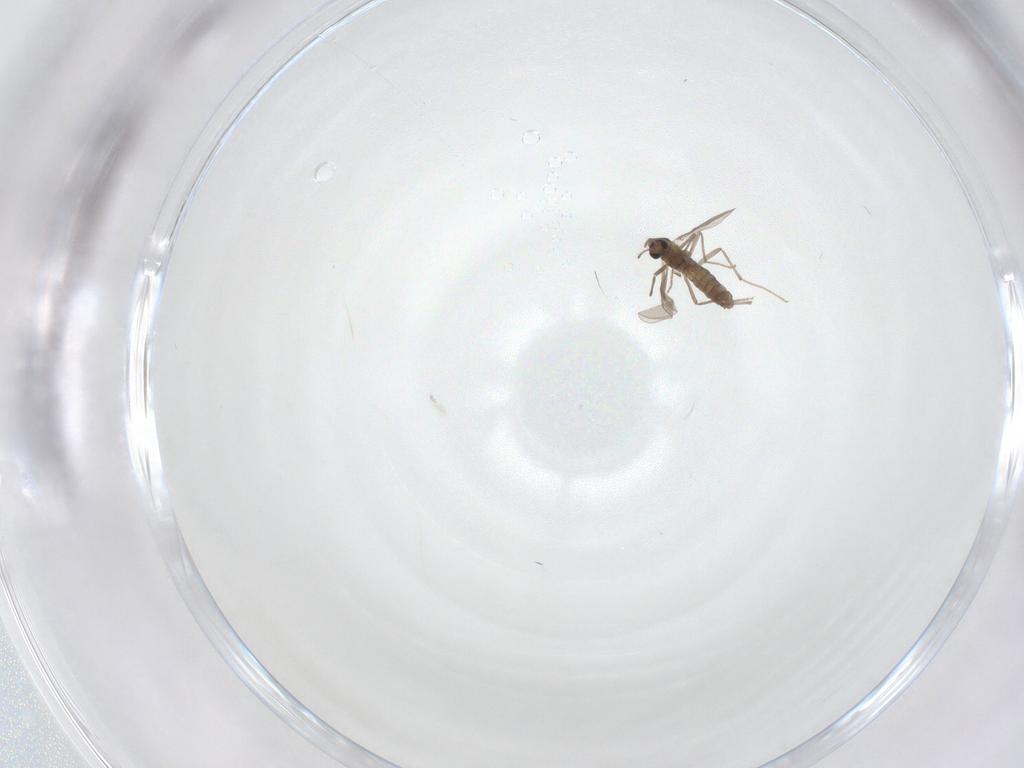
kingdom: Animalia
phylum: Arthropoda
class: Insecta
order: Diptera
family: Chironomidae
